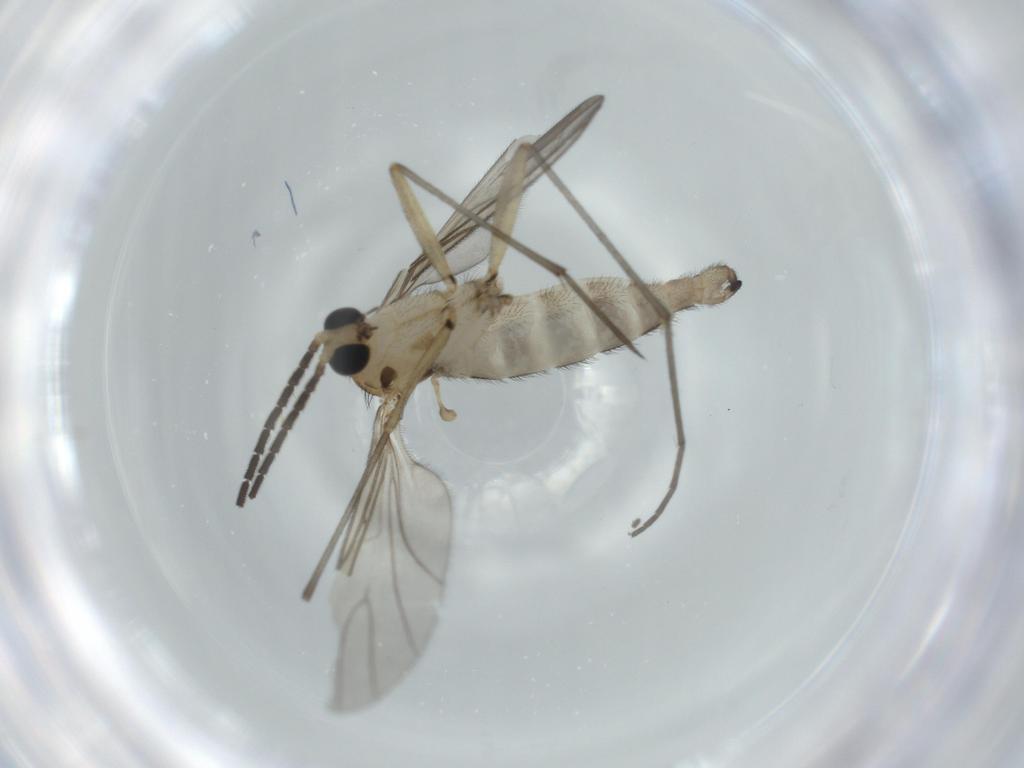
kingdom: Animalia
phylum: Arthropoda
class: Insecta
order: Diptera
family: Sciaridae
